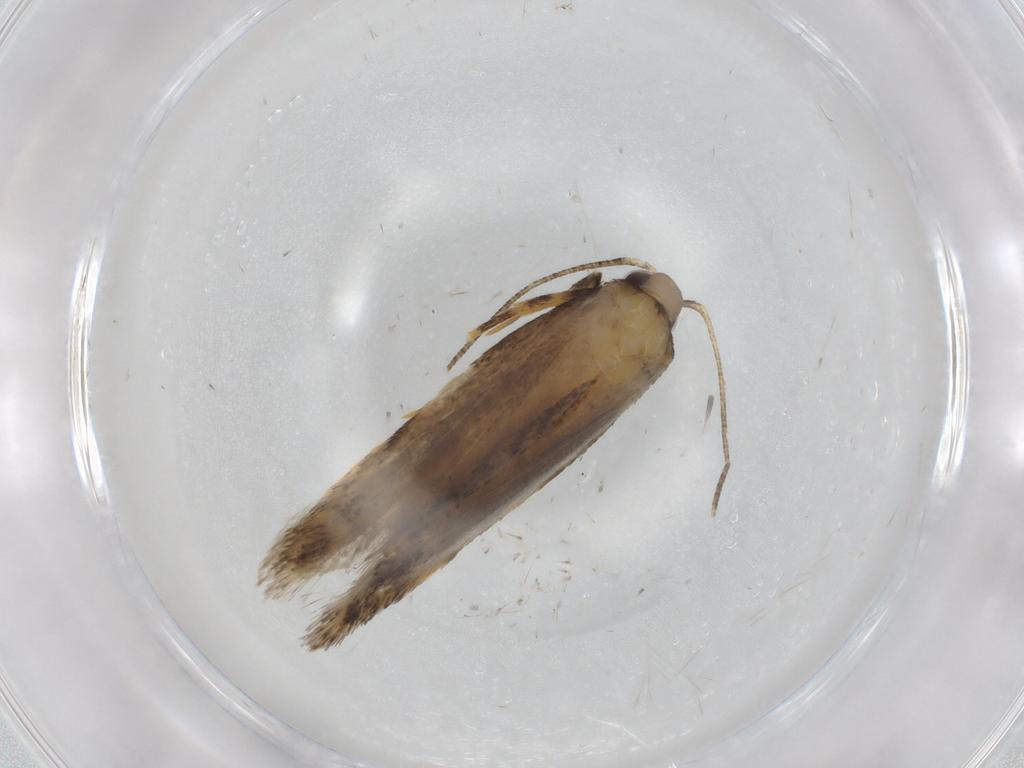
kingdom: Animalia
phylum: Arthropoda
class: Insecta
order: Lepidoptera
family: Autostichidae
